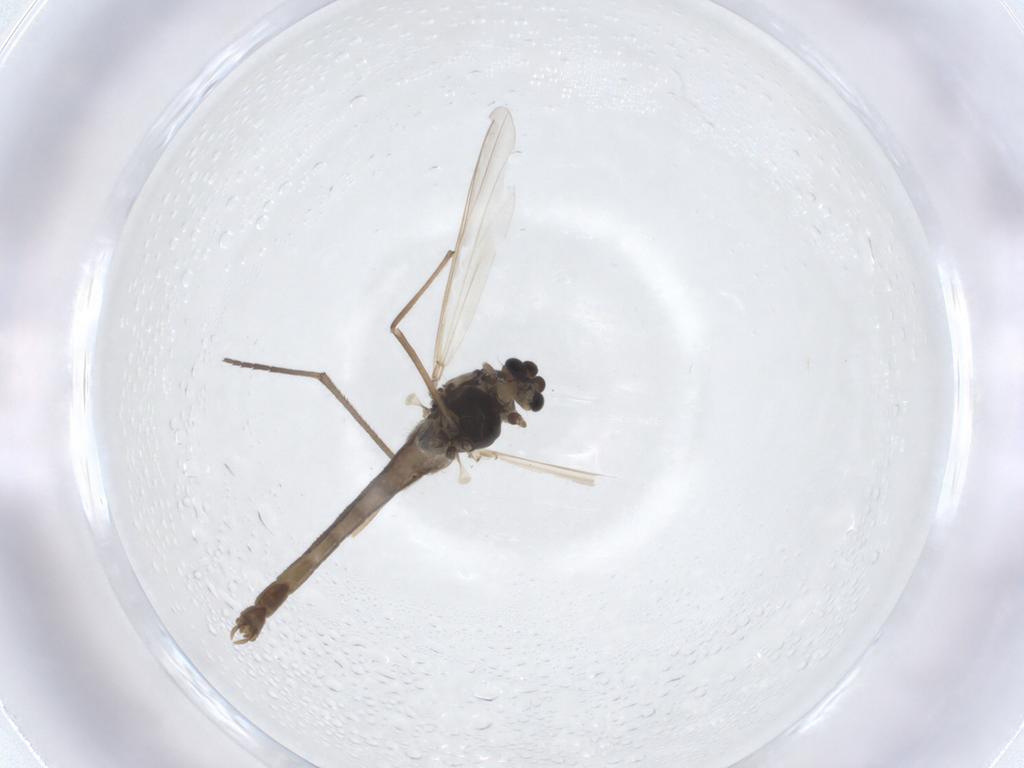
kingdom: Animalia
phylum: Arthropoda
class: Insecta
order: Diptera
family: Chironomidae
